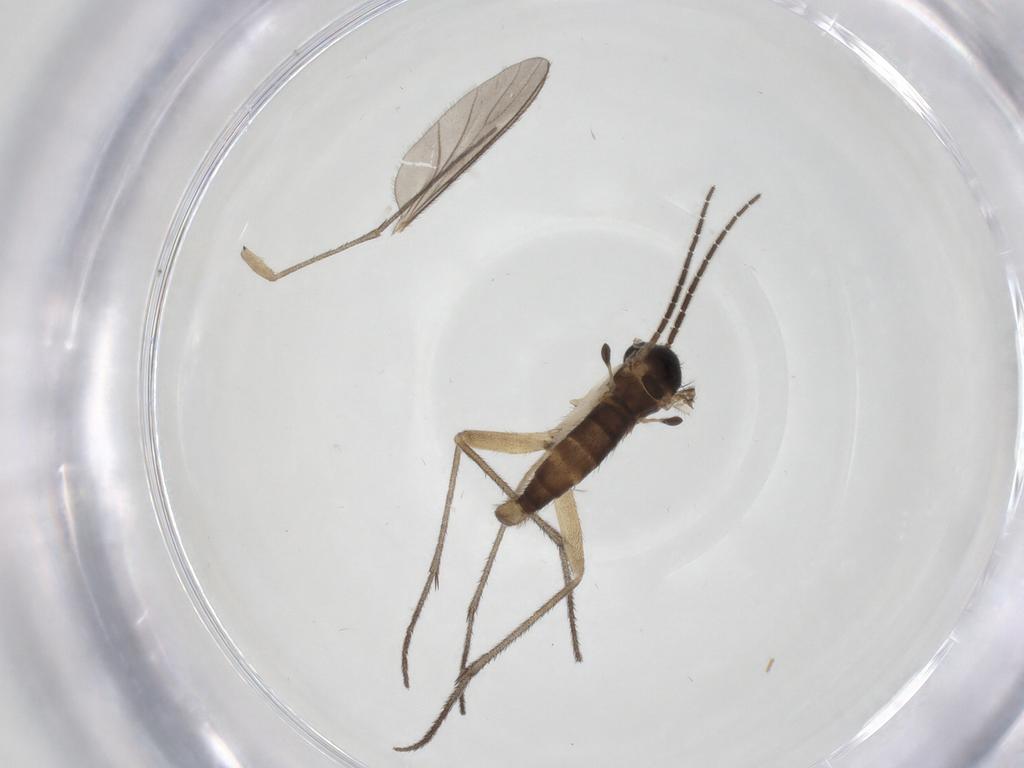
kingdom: Animalia
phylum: Arthropoda
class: Insecta
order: Diptera
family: Sciaridae
